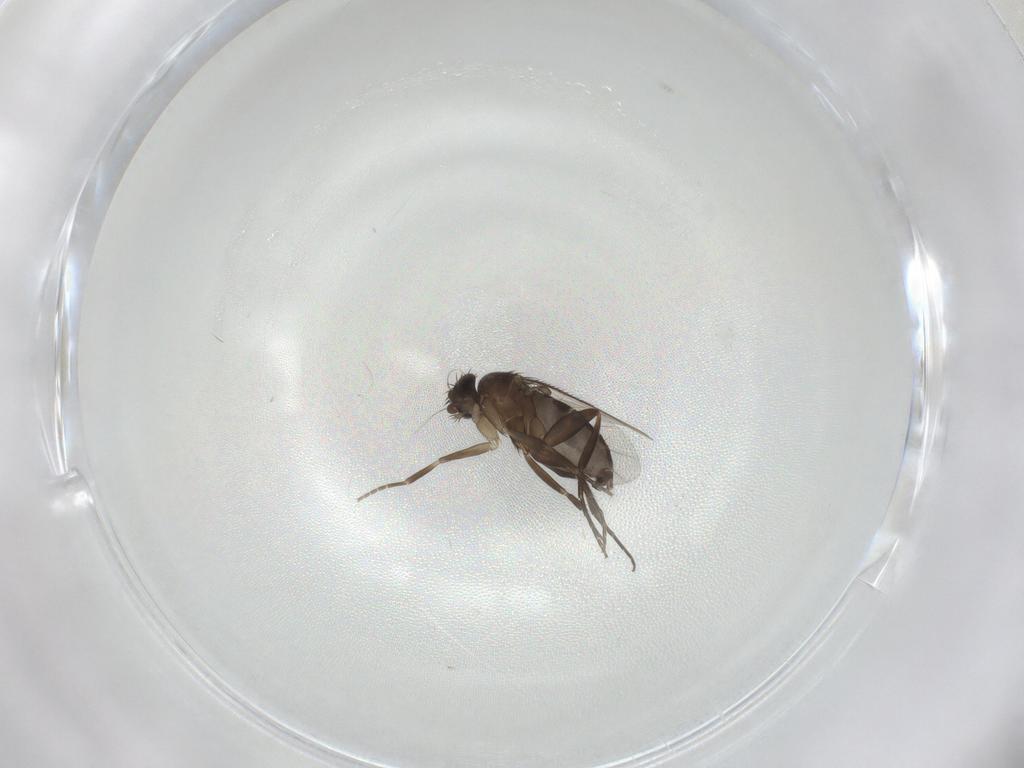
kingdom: Animalia
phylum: Arthropoda
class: Insecta
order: Diptera
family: Phoridae
